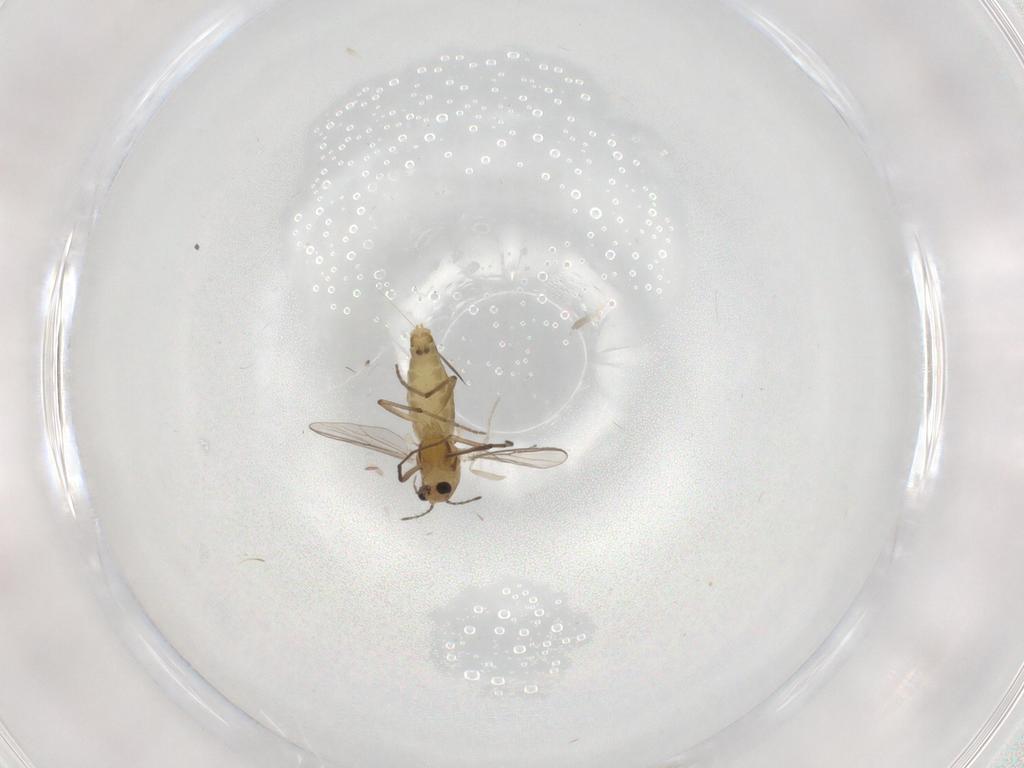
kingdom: Animalia
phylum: Arthropoda
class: Insecta
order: Diptera
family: Chironomidae
